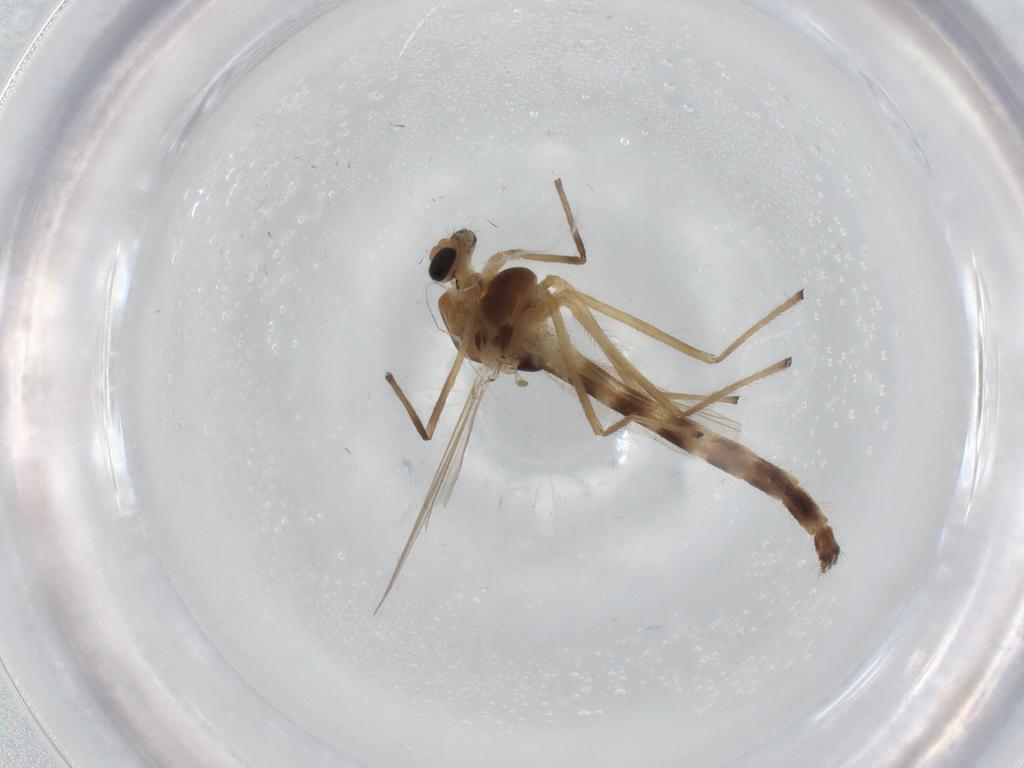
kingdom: Animalia
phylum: Arthropoda
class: Insecta
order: Diptera
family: Chironomidae
